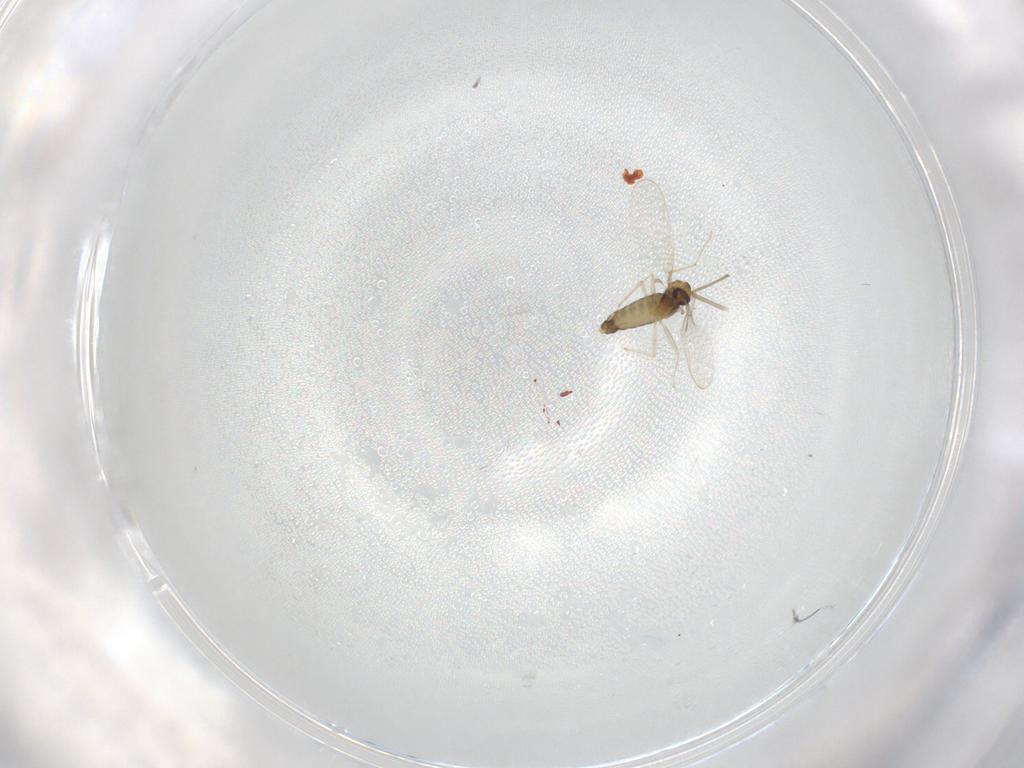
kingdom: Animalia
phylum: Arthropoda
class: Insecta
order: Diptera
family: Chironomidae
